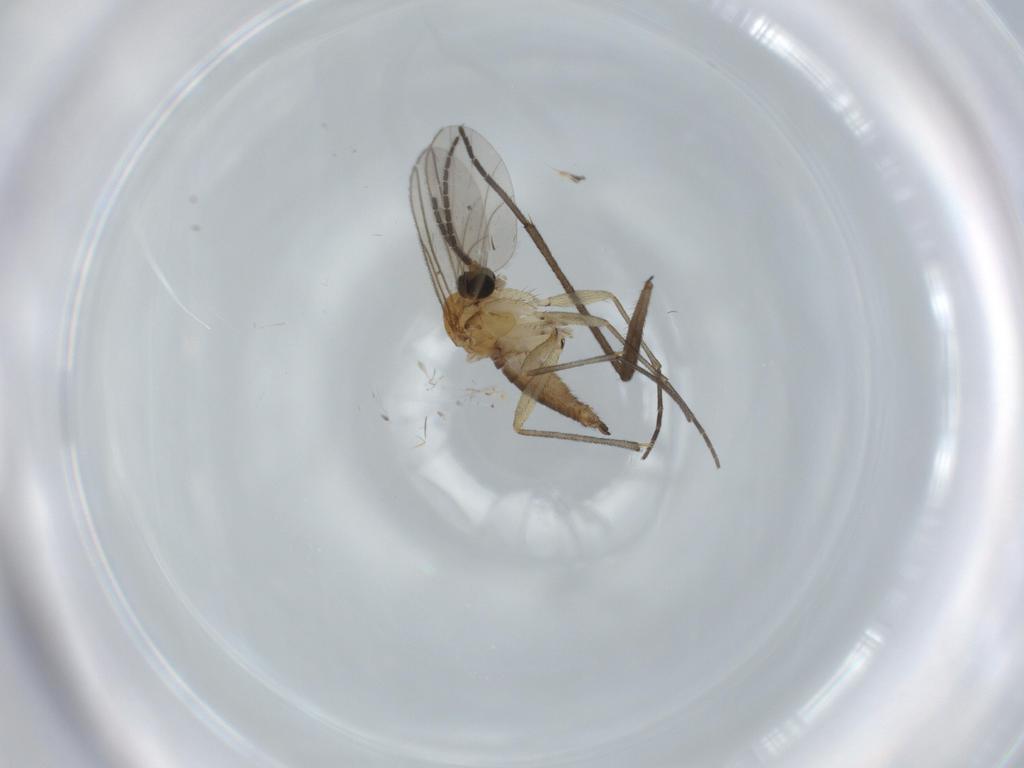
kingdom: Animalia
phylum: Arthropoda
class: Insecta
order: Diptera
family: Sciaridae
